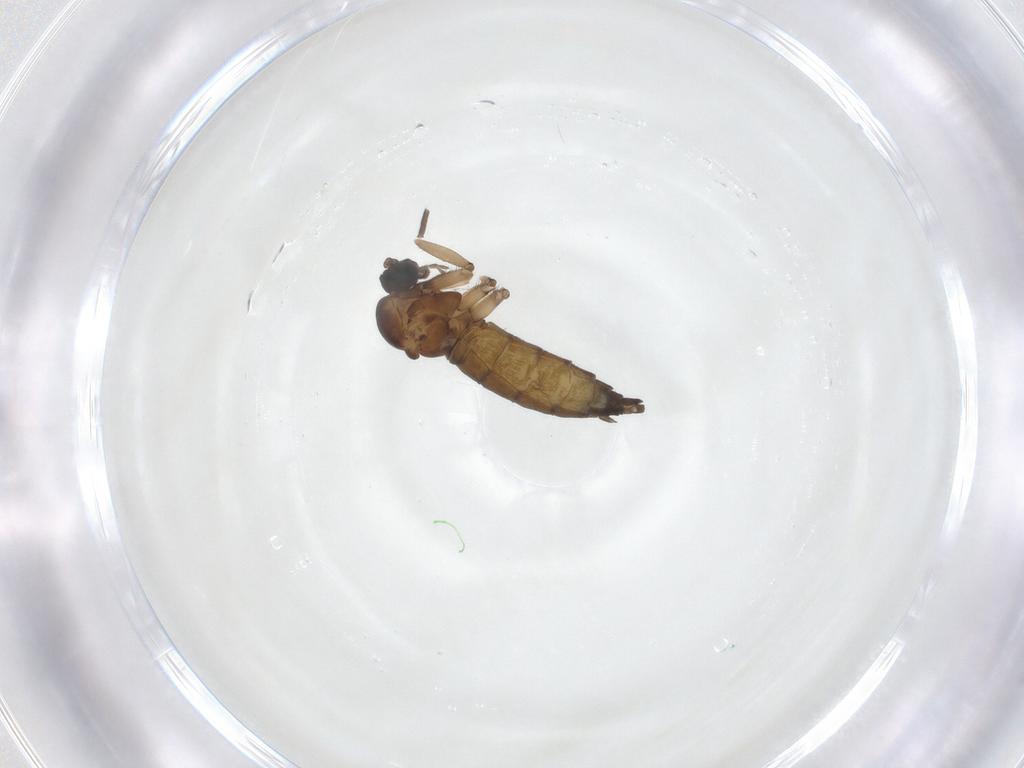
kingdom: Animalia
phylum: Arthropoda
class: Insecta
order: Diptera
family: Sciaridae
